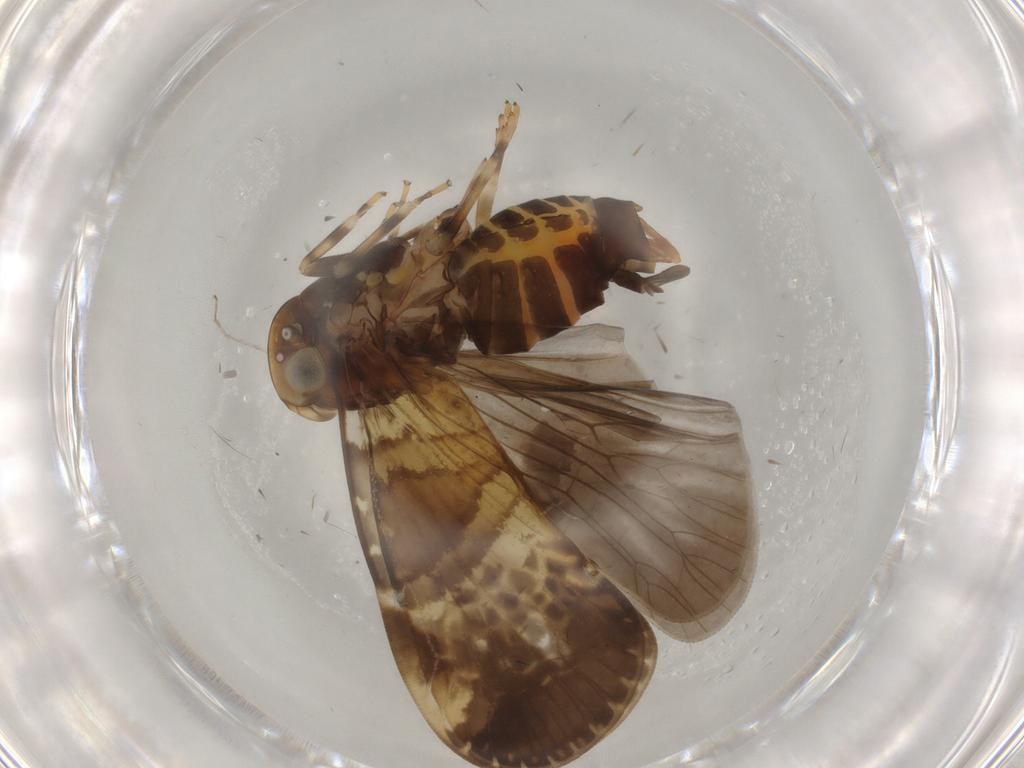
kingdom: Animalia
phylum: Arthropoda
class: Insecta
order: Hemiptera
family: Cixiidae
